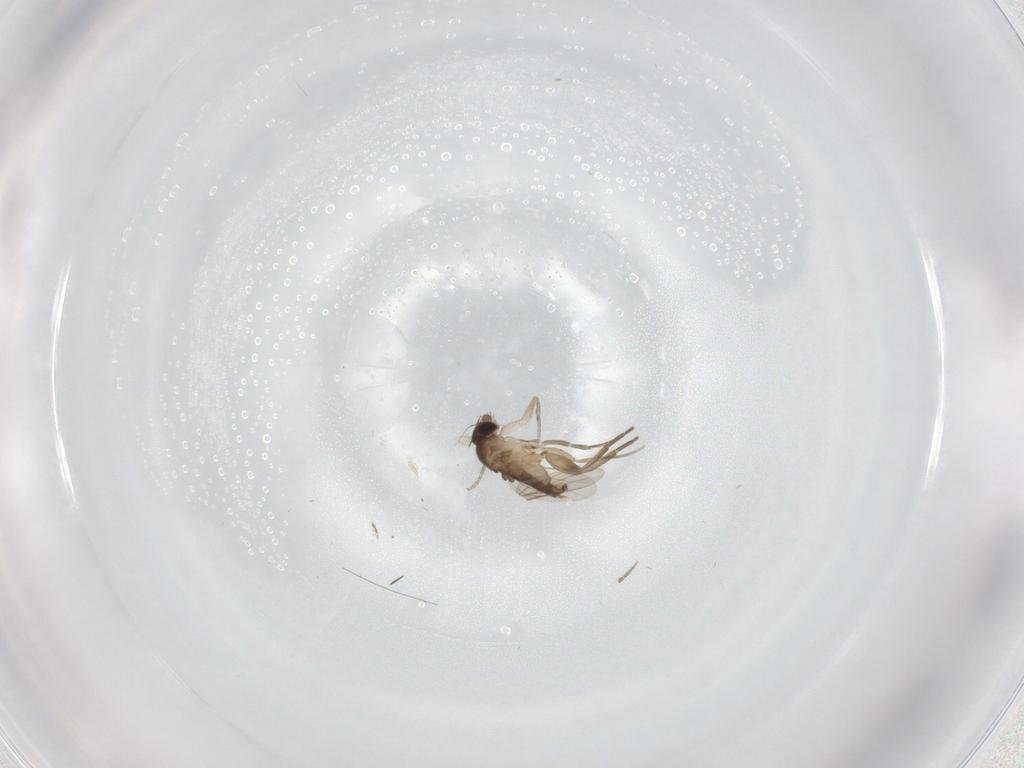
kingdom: Animalia
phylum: Arthropoda
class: Insecta
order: Diptera
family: Phoridae
